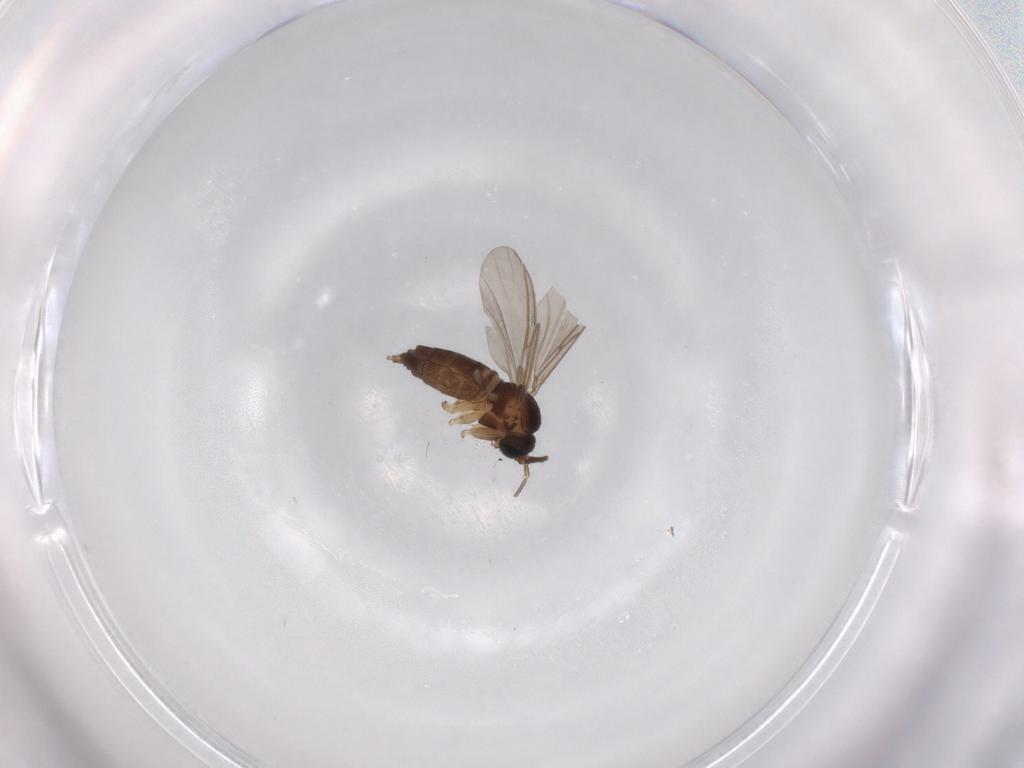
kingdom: Animalia
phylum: Arthropoda
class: Insecta
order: Diptera
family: Sciaridae
